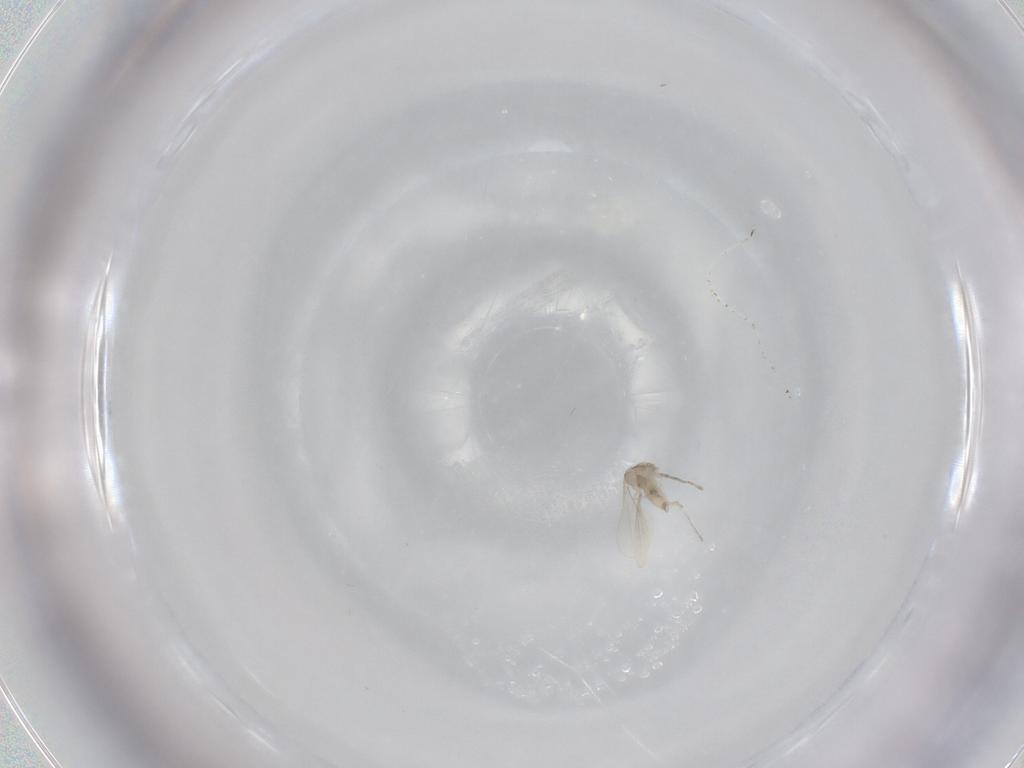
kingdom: Animalia
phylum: Arthropoda
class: Insecta
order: Diptera
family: Cecidomyiidae
